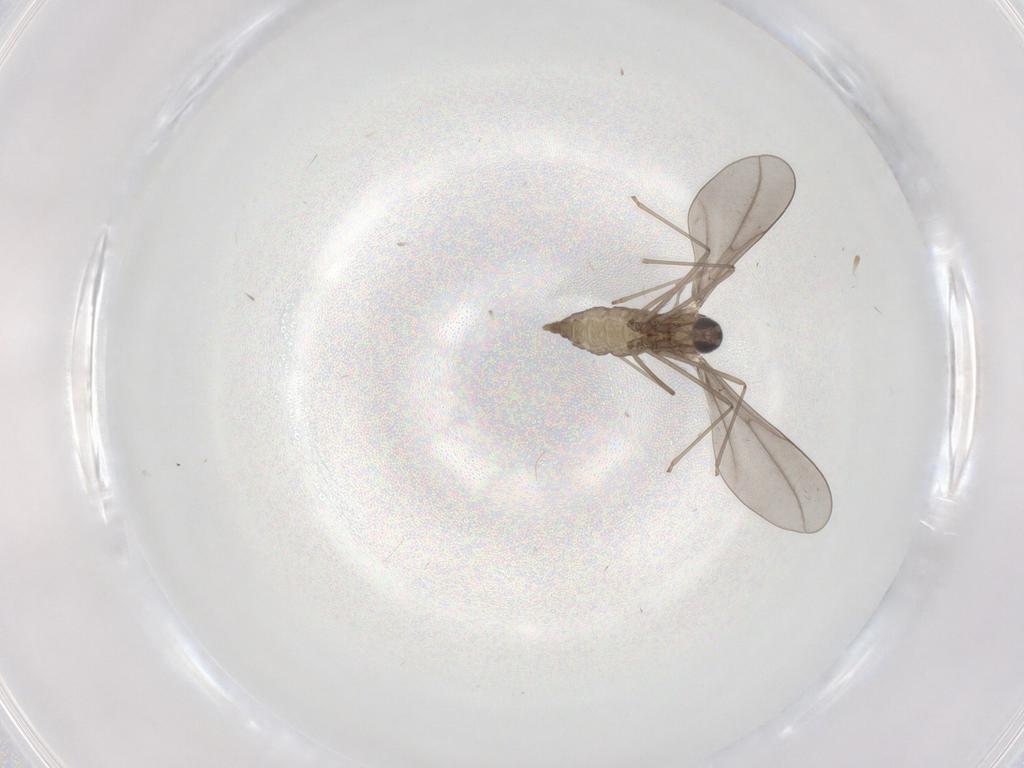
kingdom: Animalia
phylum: Arthropoda
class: Insecta
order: Diptera
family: Cecidomyiidae
